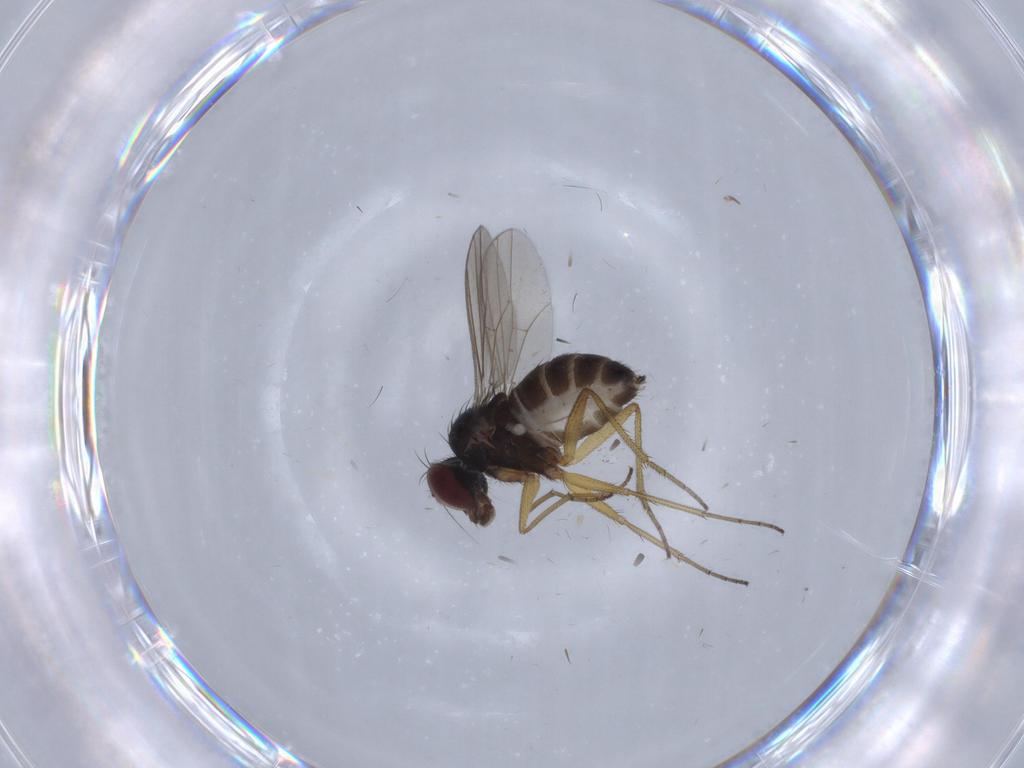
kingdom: Animalia
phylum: Arthropoda
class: Insecta
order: Diptera
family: Dolichopodidae
